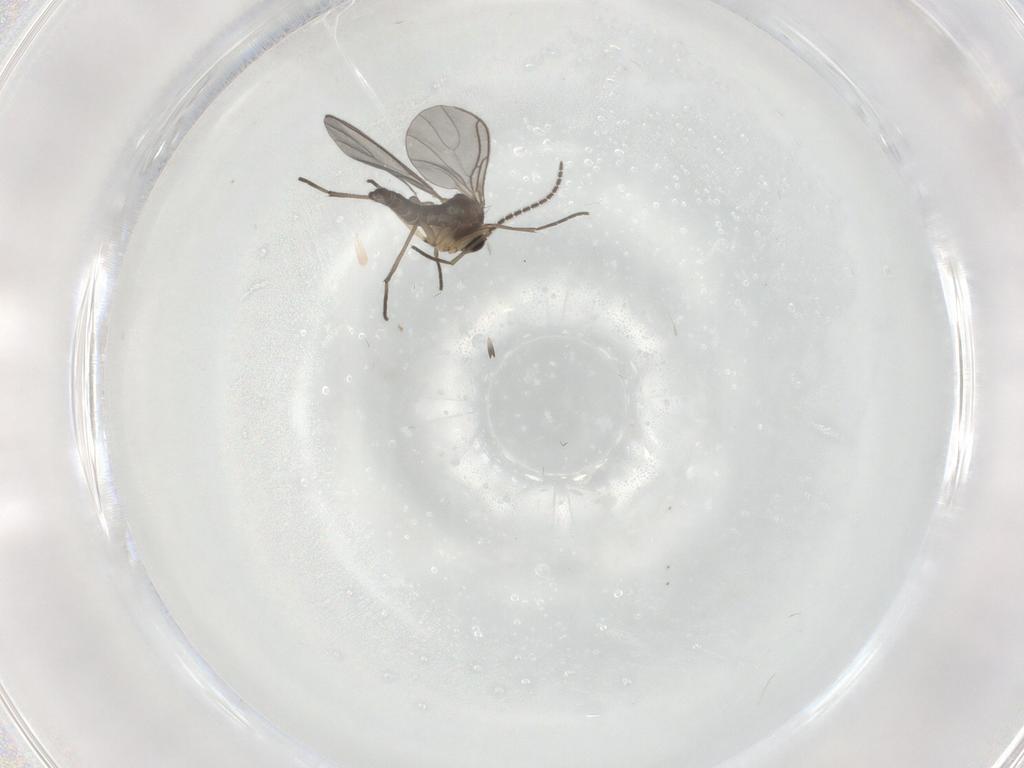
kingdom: Animalia
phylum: Arthropoda
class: Insecta
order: Diptera
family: Sciaridae
